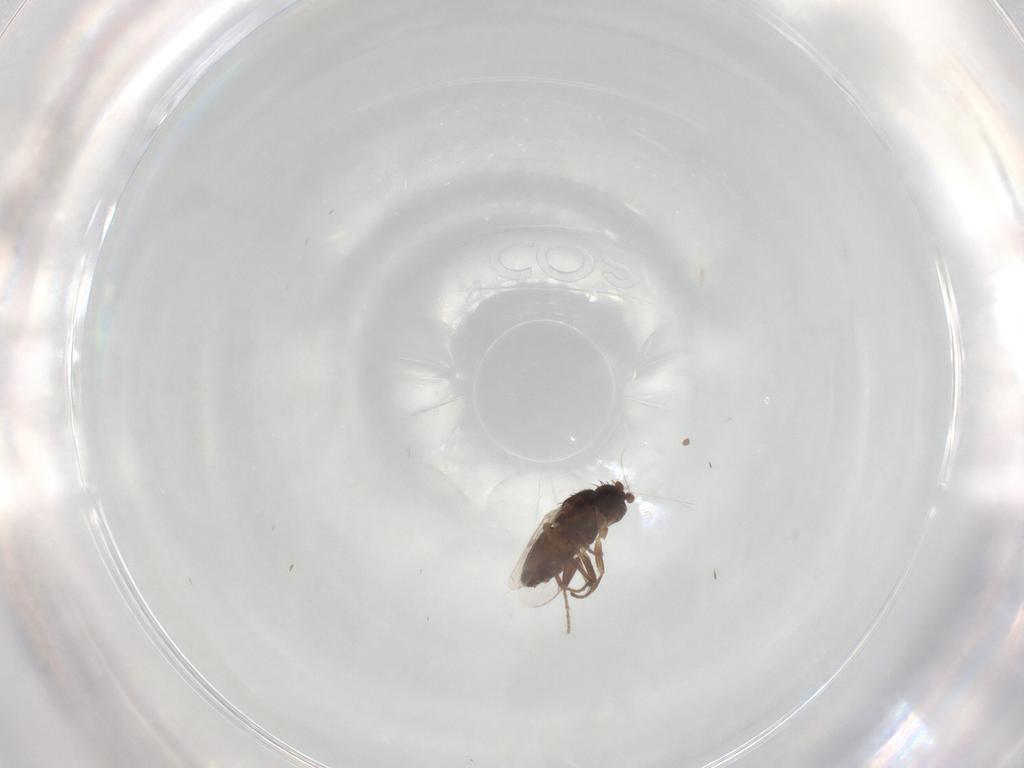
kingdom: Animalia
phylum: Arthropoda
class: Insecta
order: Diptera
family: Sphaeroceridae
